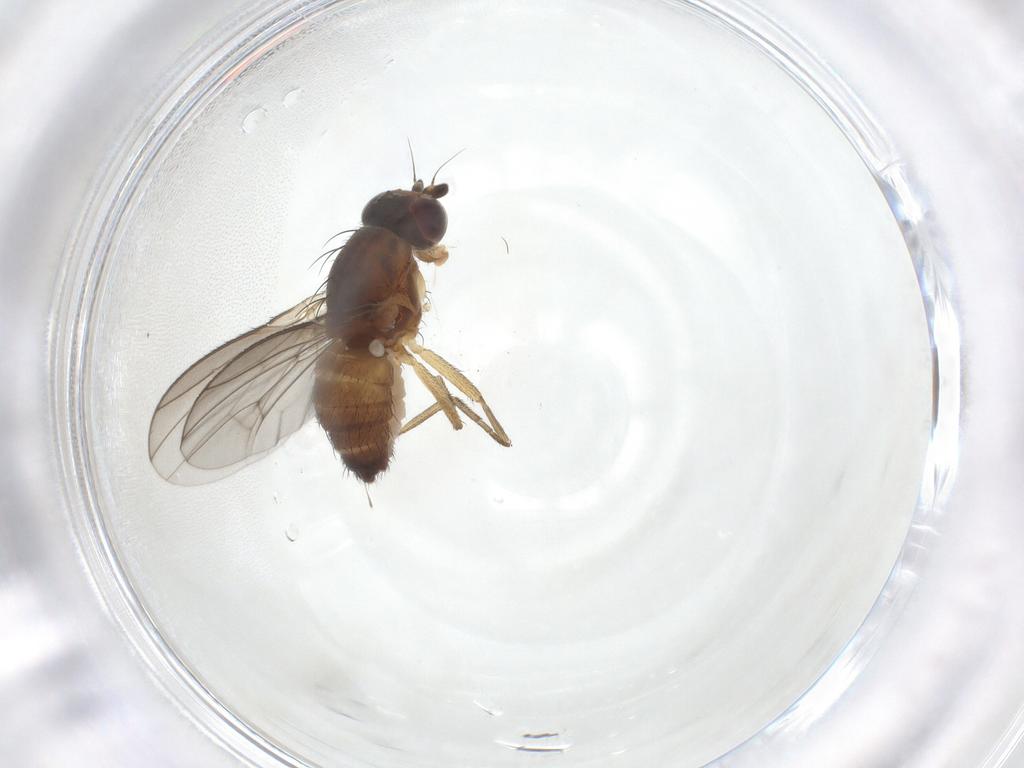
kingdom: Animalia
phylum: Arthropoda
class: Insecta
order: Diptera
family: Heleomyzidae
